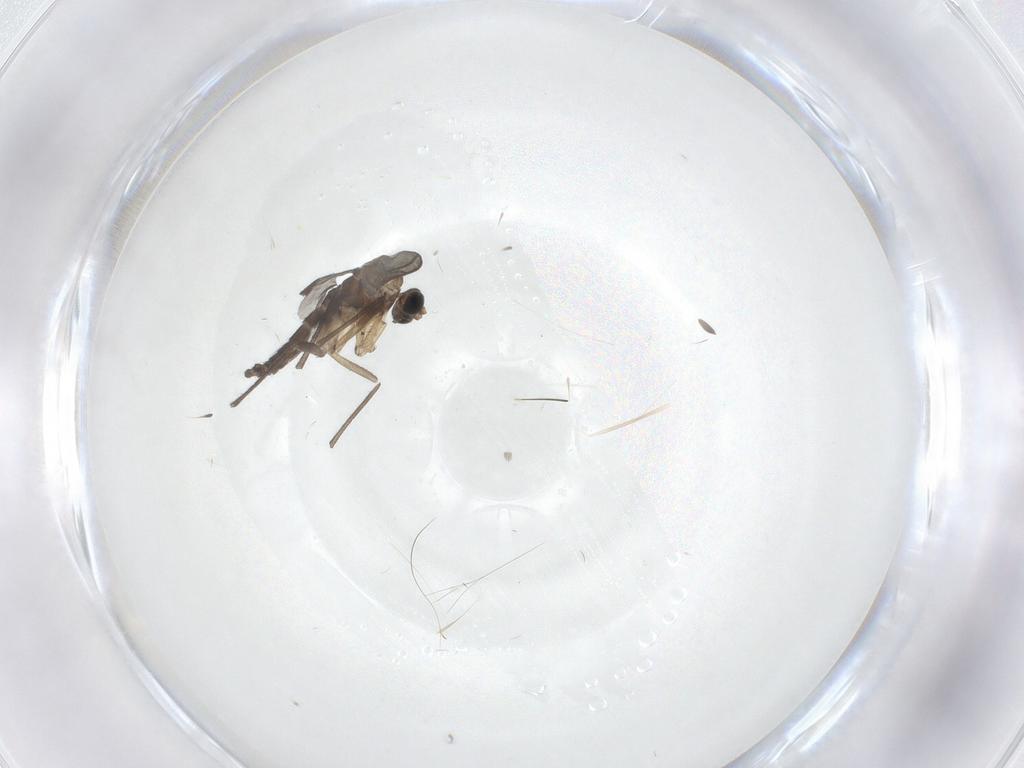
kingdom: Animalia
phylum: Arthropoda
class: Insecta
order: Diptera
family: Sciaridae
